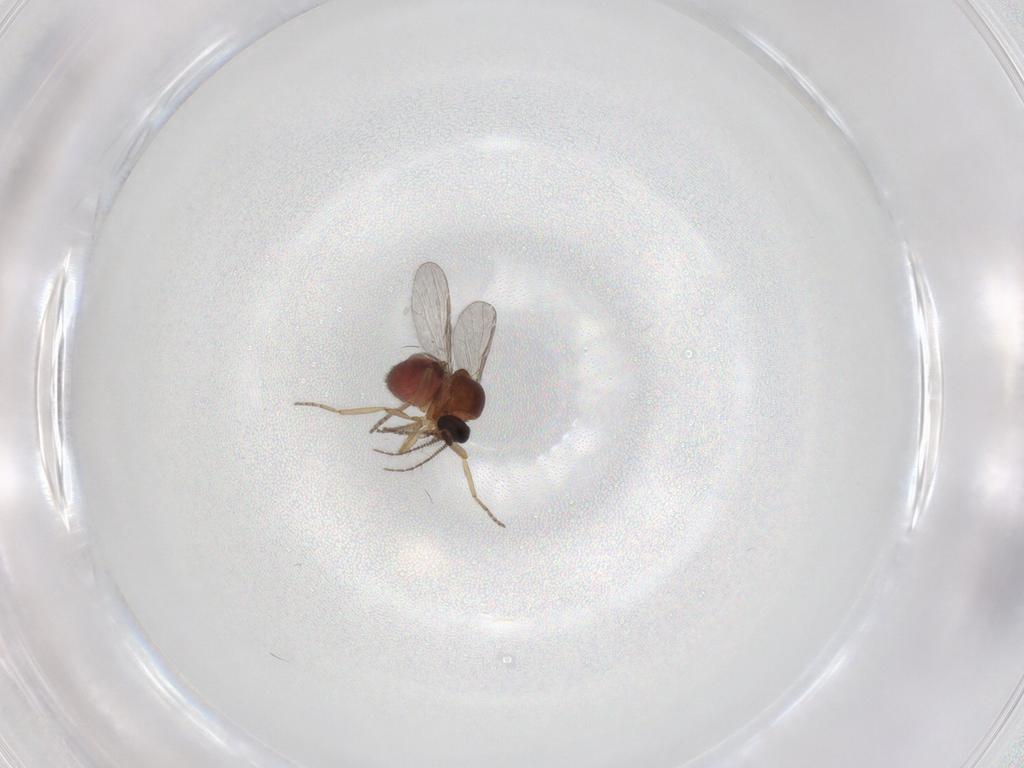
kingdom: Animalia
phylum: Arthropoda
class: Insecta
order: Diptera
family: Ceratopogonidae
